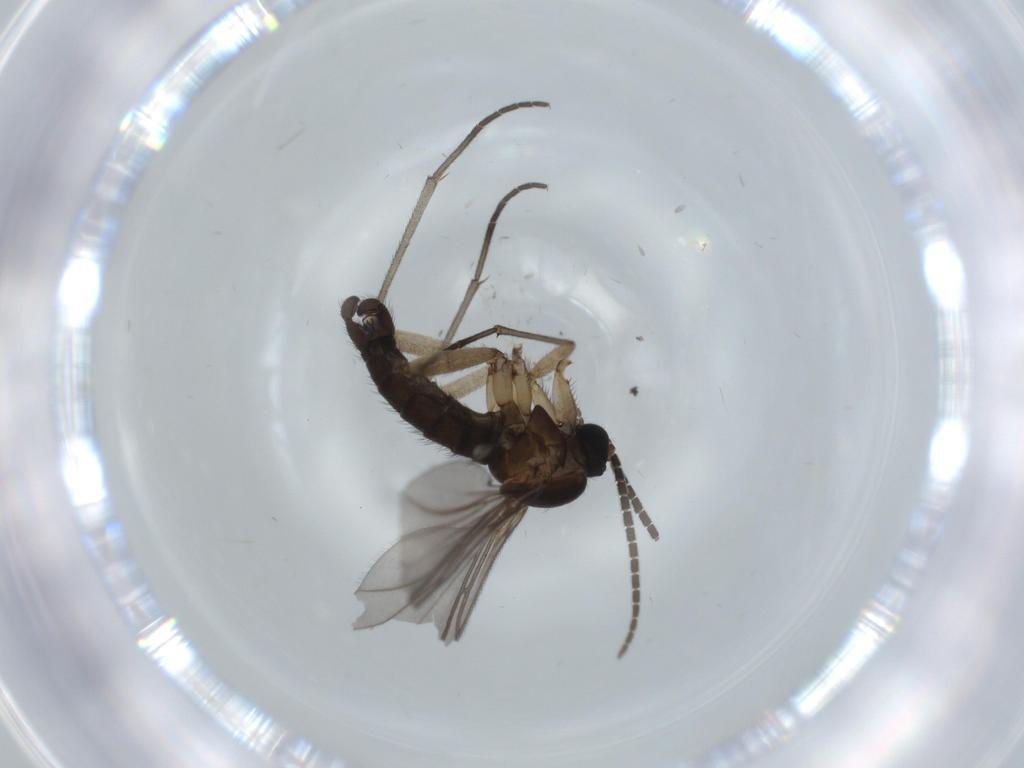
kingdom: Animalia
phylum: Arthropoda
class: Insecta
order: Diptera
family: Sciaridae
